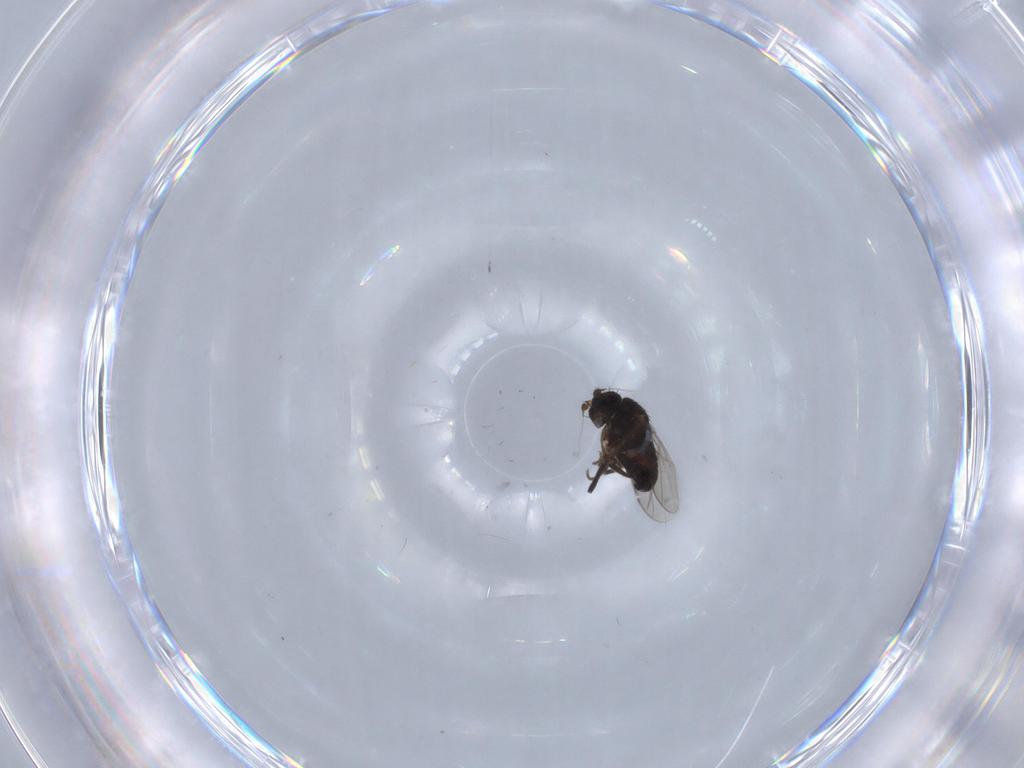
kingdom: Animalia
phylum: Arthropoda
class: Insecta
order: Diptera
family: Sphaeroceridae
